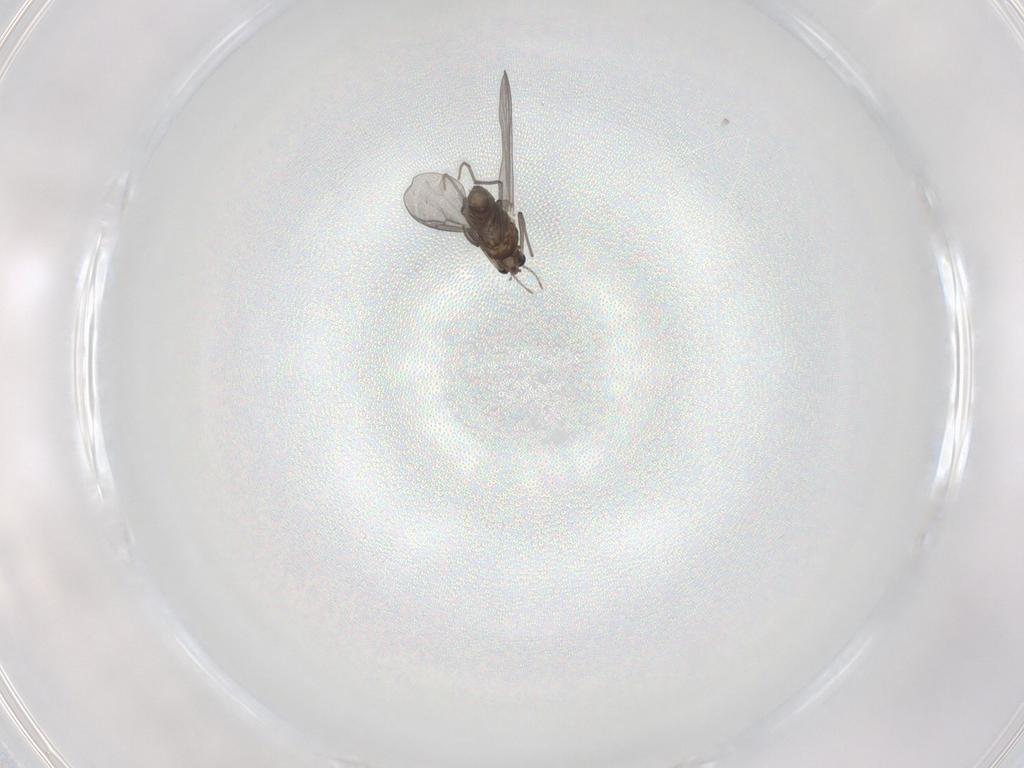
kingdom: Animalia
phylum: Arthropoda
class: Insecta
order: Diptera
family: Chironomidae
